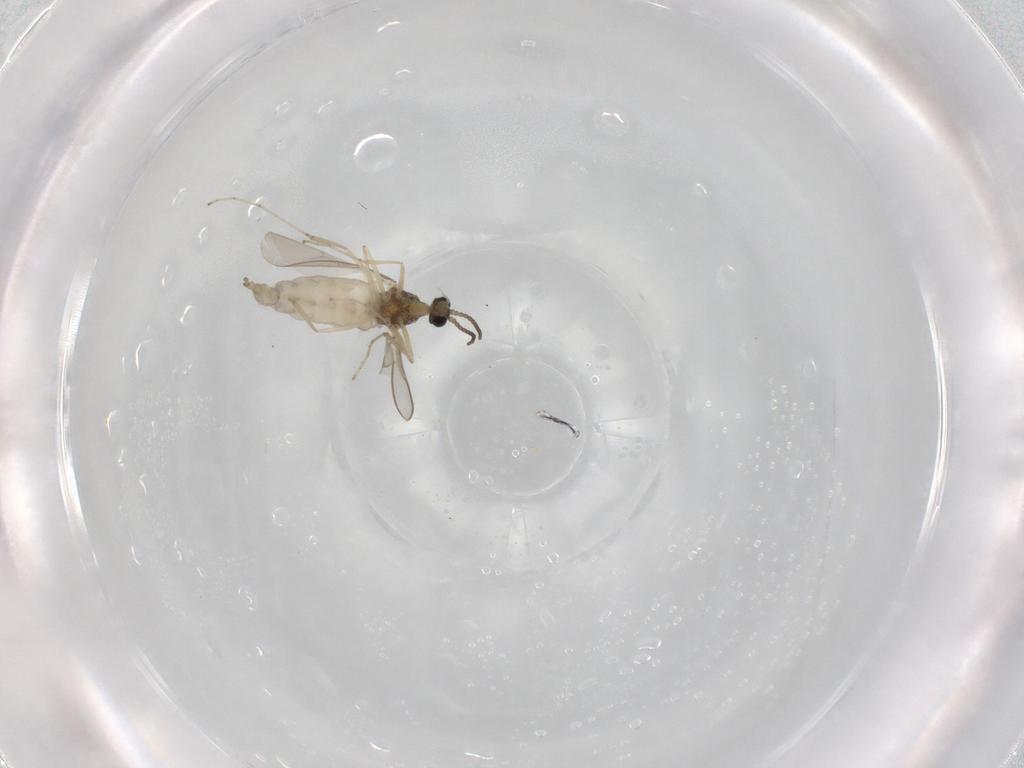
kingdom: Animalia
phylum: Arthropoda
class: Insecta
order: Diptera
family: Cecidomyiidae
